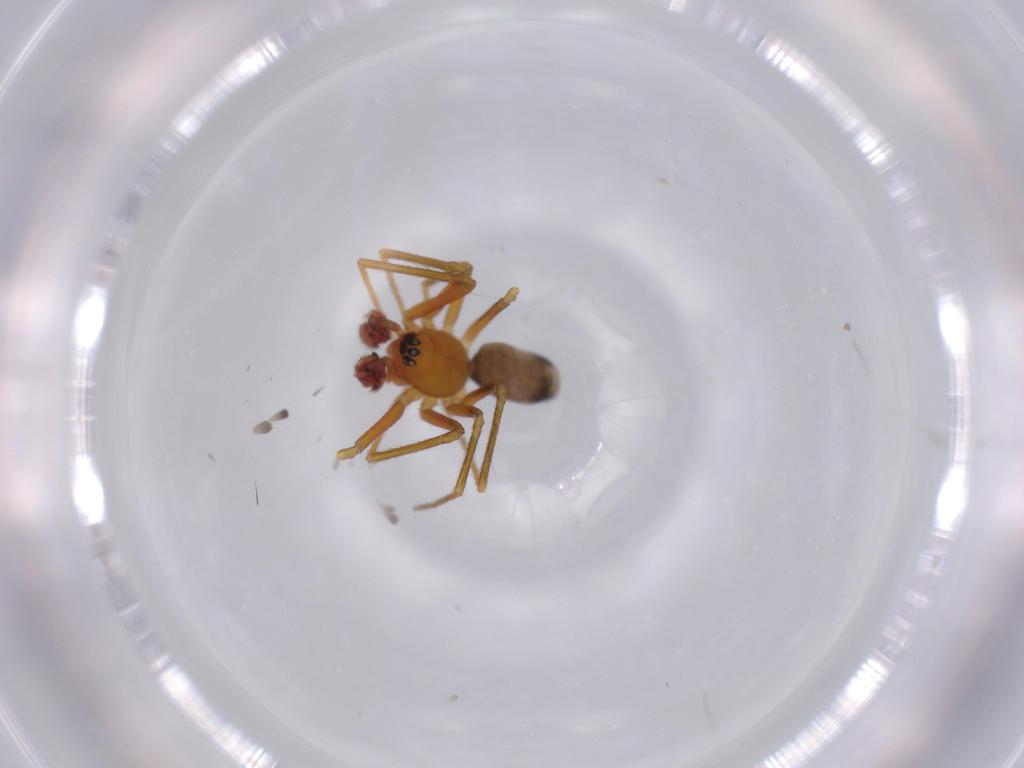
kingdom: Animalia
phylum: Arthropoda
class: Arachnida
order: Araneae
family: Linyphiidae
